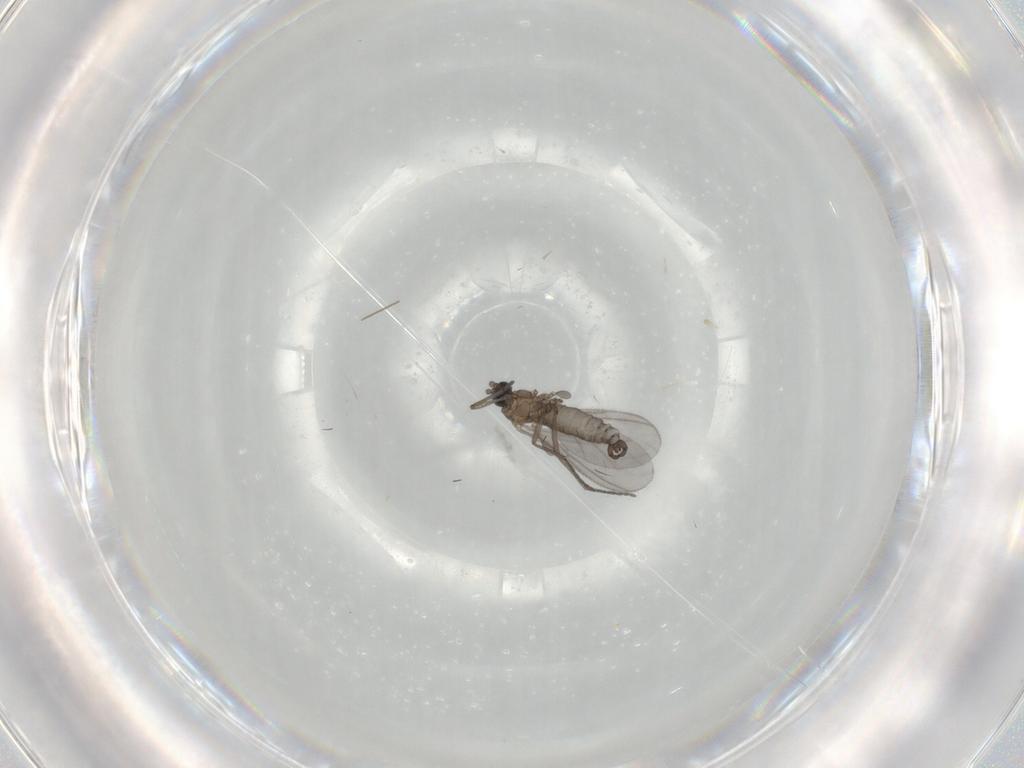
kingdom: Animalia
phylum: Arthropoda
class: Insecta
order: Diptera
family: Sciaridae
